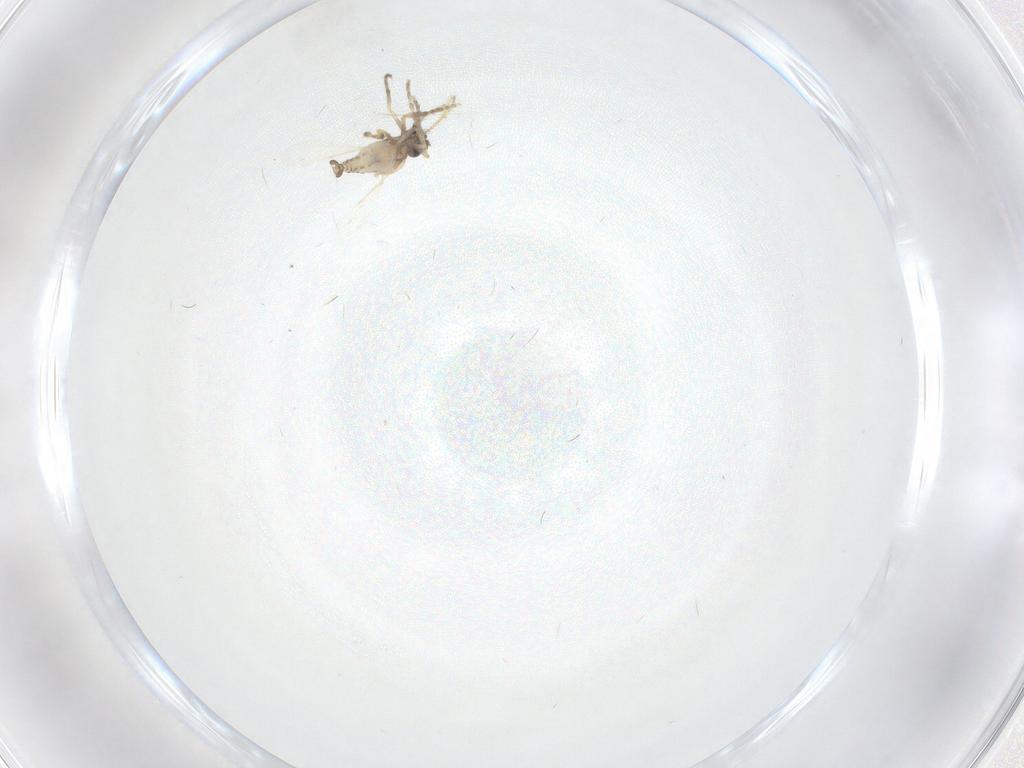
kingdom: Animalia
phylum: Arthropoda
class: Insecta
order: Diptera
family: Ceratopogonidae
